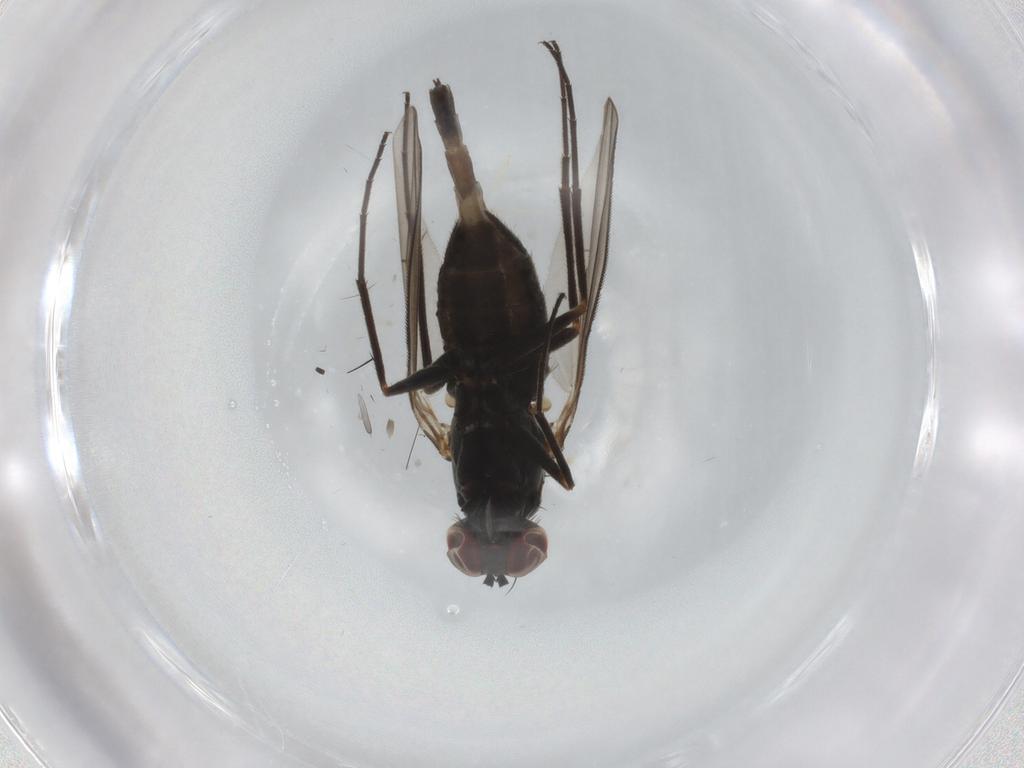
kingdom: Animalia
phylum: Arthropoda
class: Insecta
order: Diptera
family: Dolichopodidae
